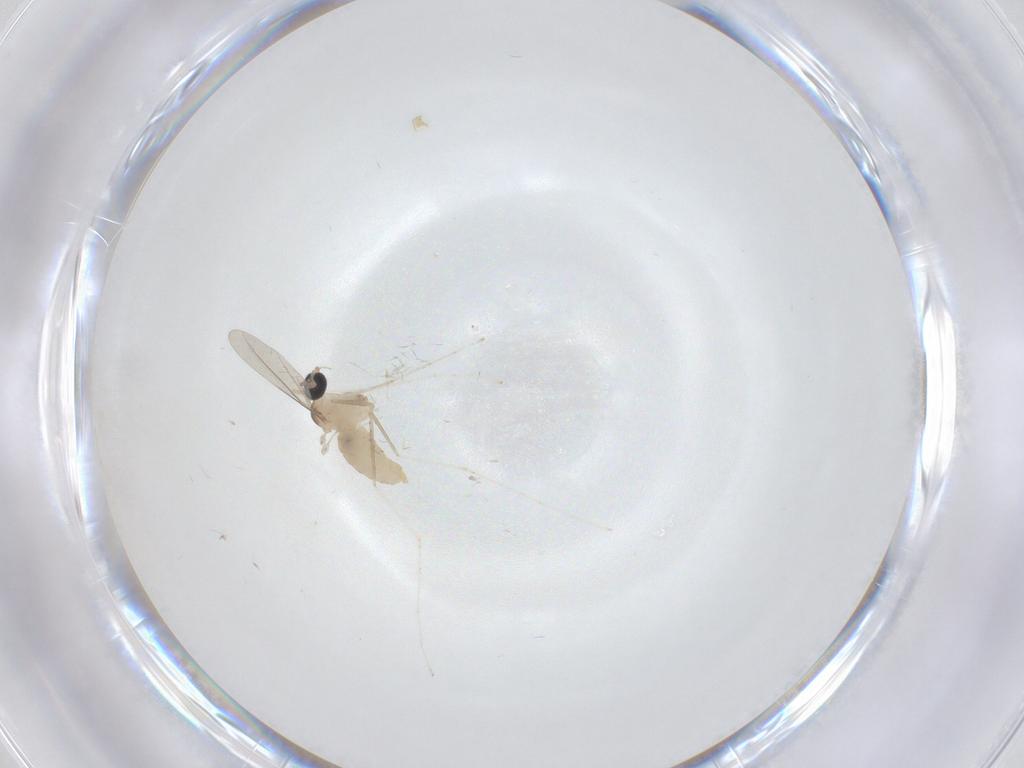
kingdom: Animalia
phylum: Arthropoda
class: Insecta
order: Diptera
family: Cecidomyiidae
